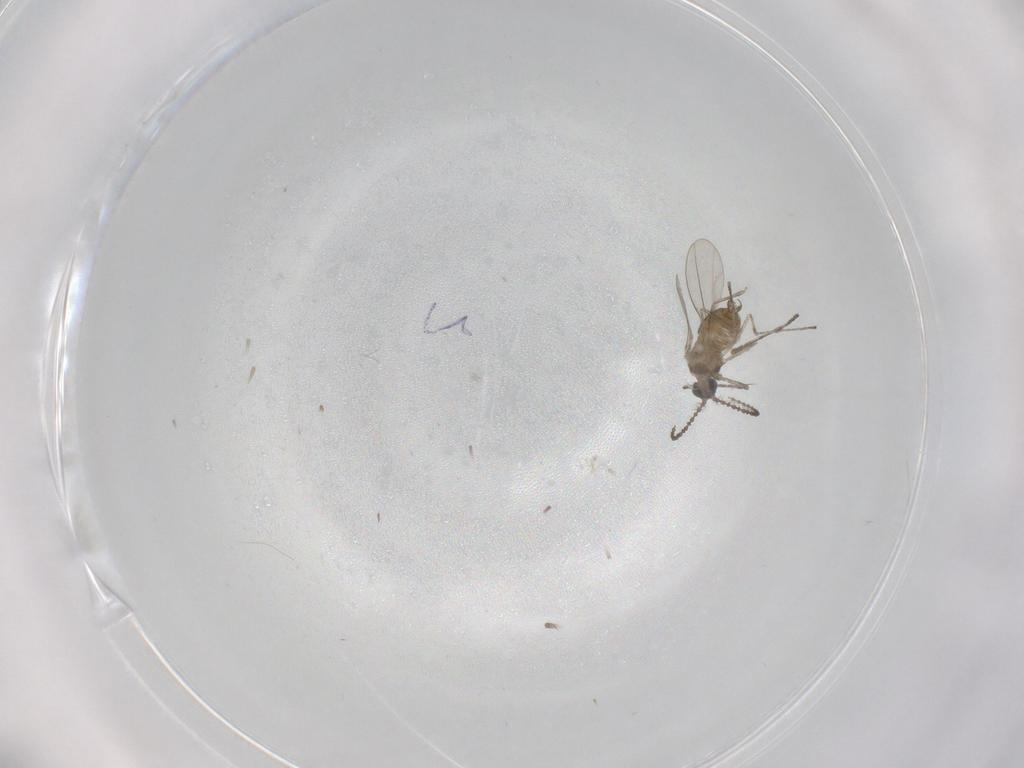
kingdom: Animalia
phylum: Arthropoda
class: Insecta
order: Diptera
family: Cecidomyiidae
